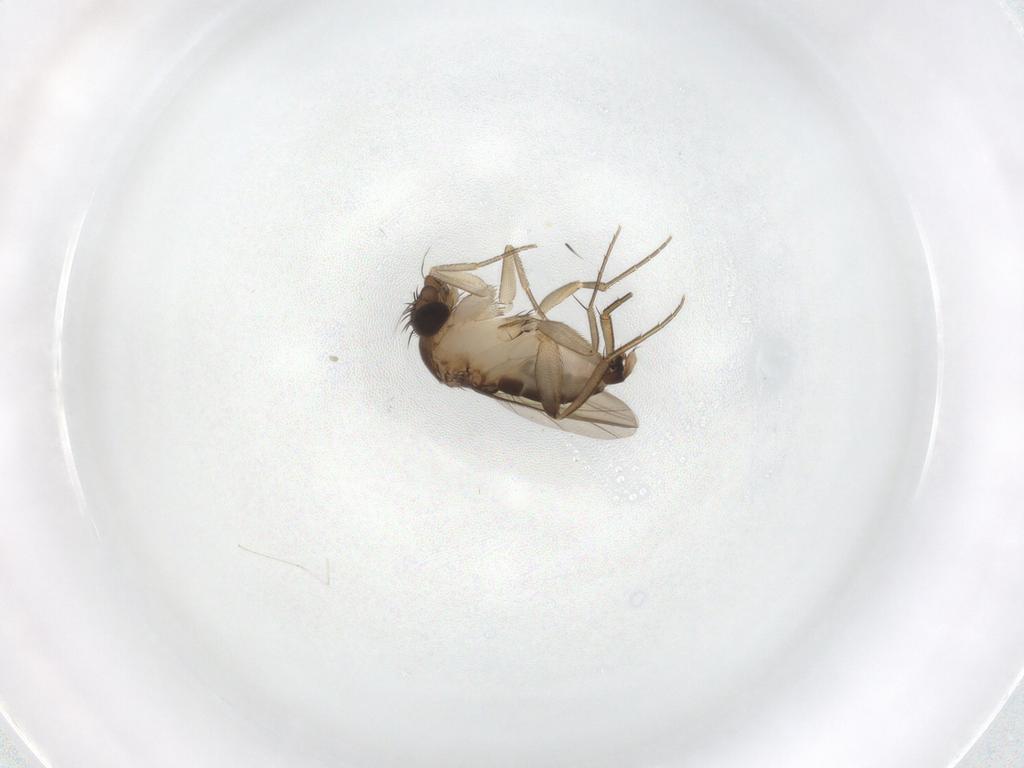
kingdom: Animalia
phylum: Arthropoda
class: Insecta
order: Diptera
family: Phoridae
